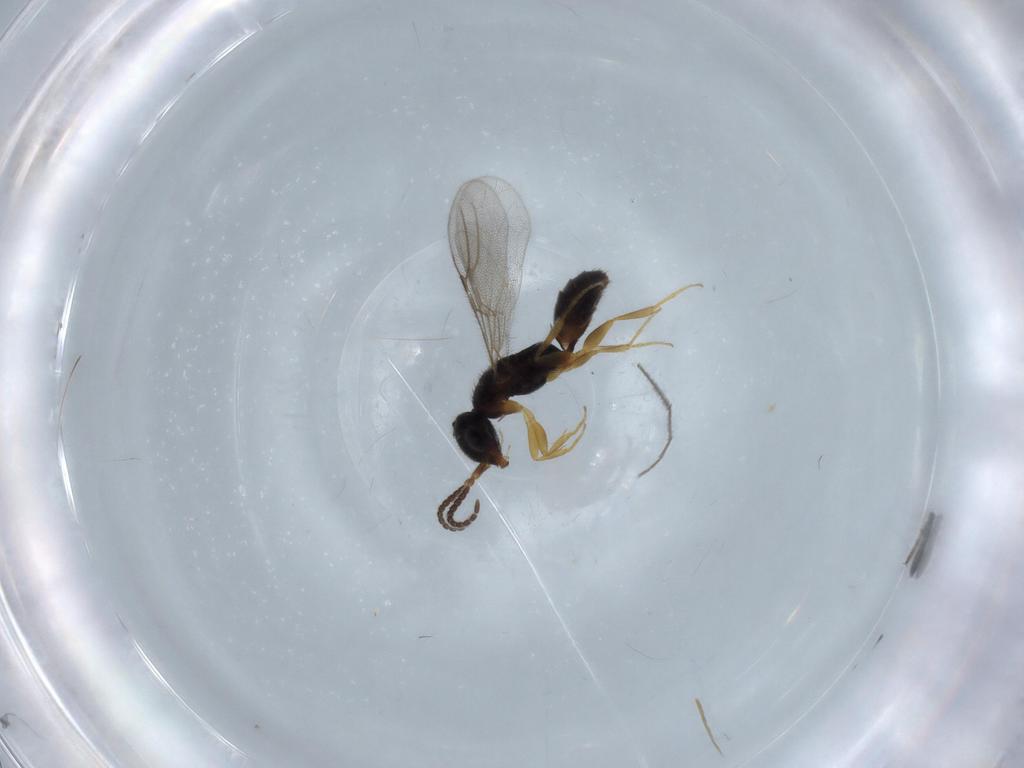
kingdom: Animalia
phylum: Arthropoda
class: Insecta
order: Hymenoptera
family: Bethylidae
